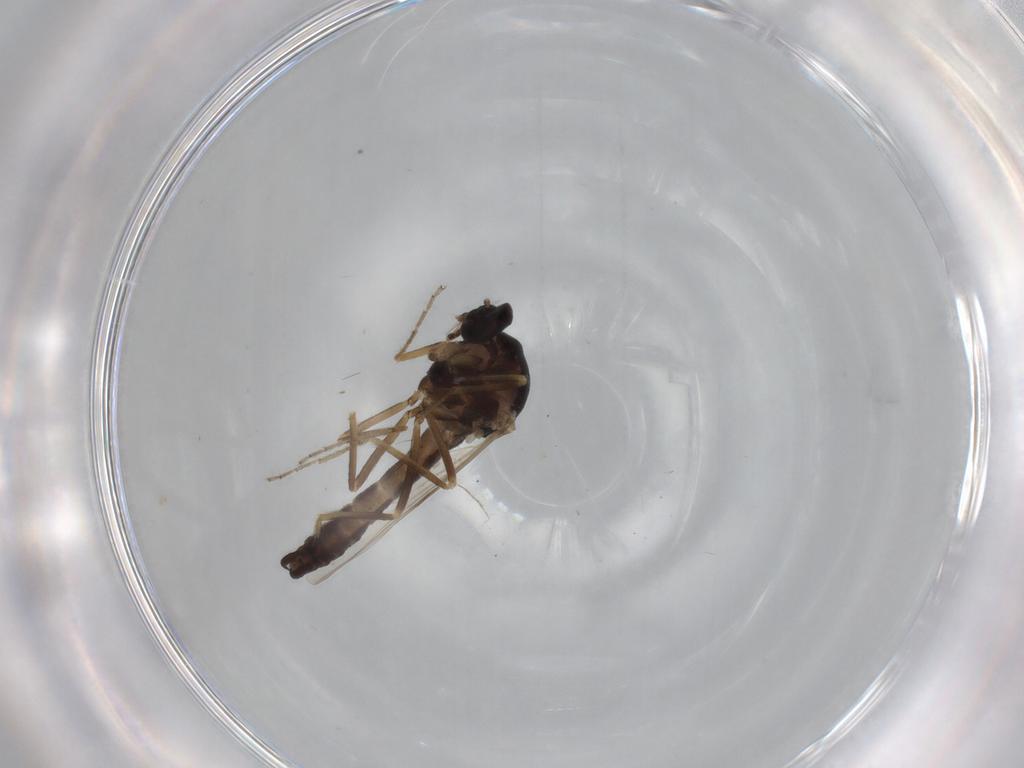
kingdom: Animalia
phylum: Arthropoda
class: Insecta
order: Diptera
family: Ceratopogonidae
